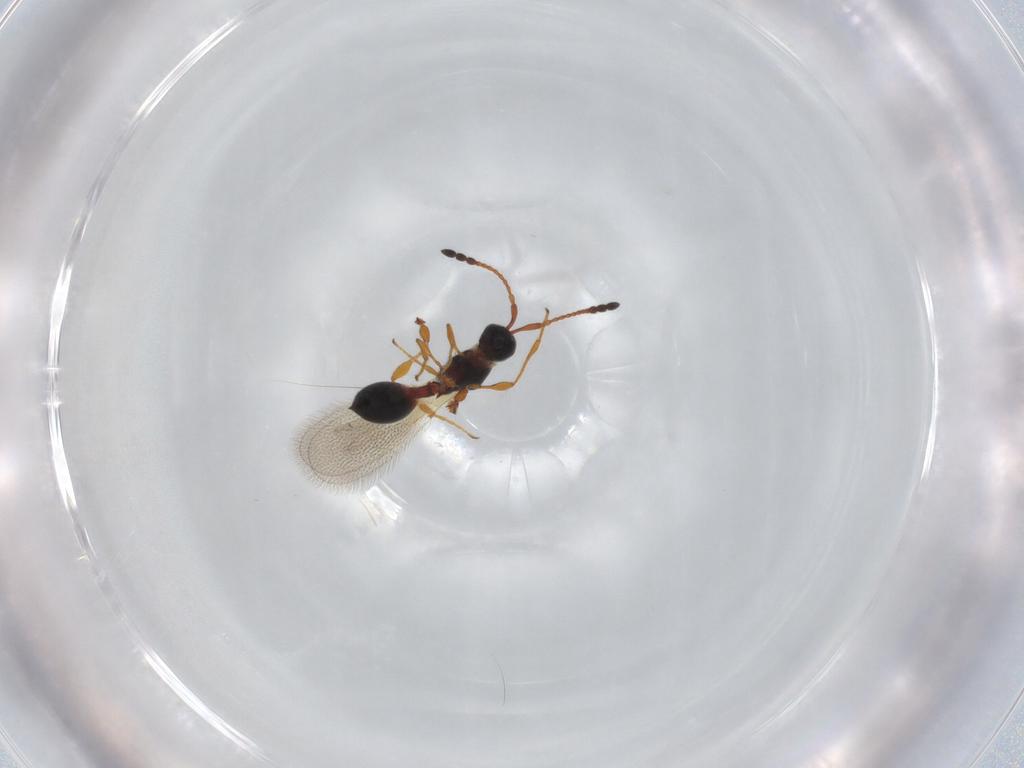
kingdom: Animalia
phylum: Arthropoda
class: Insecta
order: Hymenoptera
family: Diapriidae
